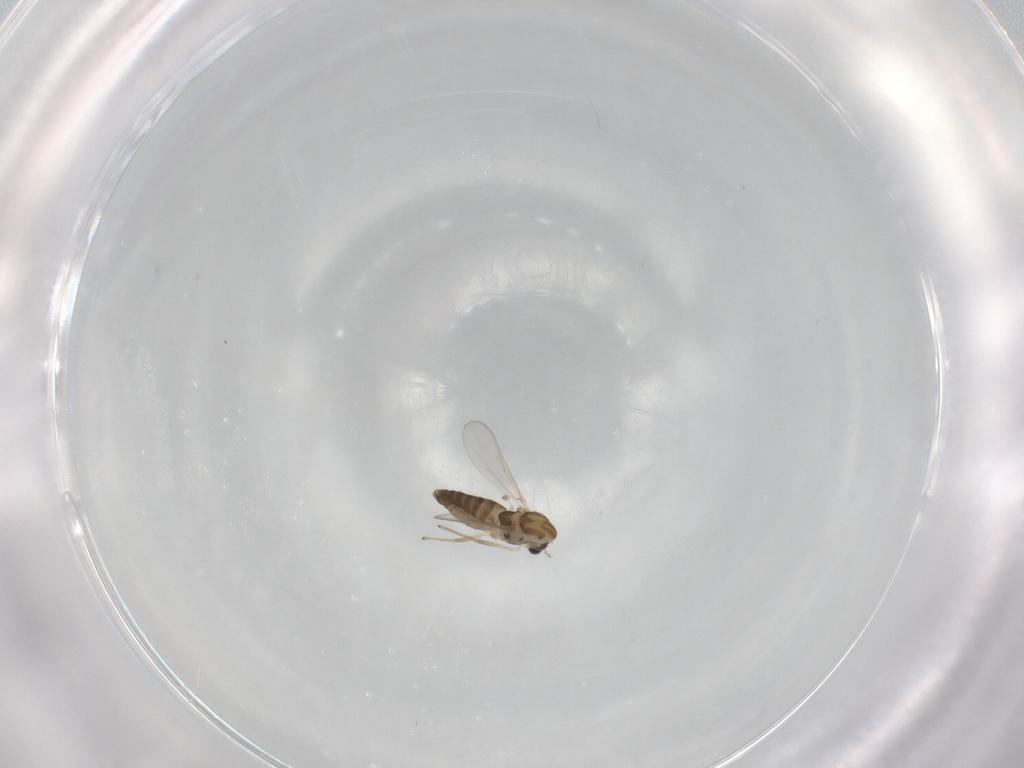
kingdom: Animalia
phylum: Arthropoda
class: Insecta
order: Diptera
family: Chironomidae
